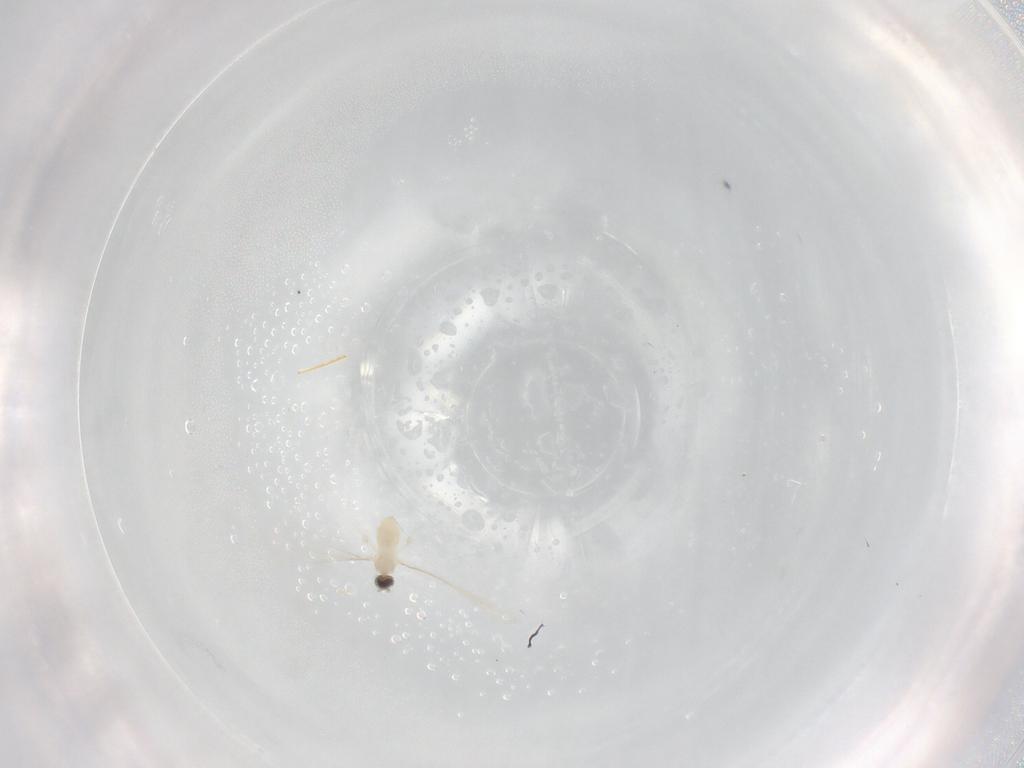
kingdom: Animalia
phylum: Arthropoda
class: Insecta
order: Diptera
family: Cecidomyiidae
